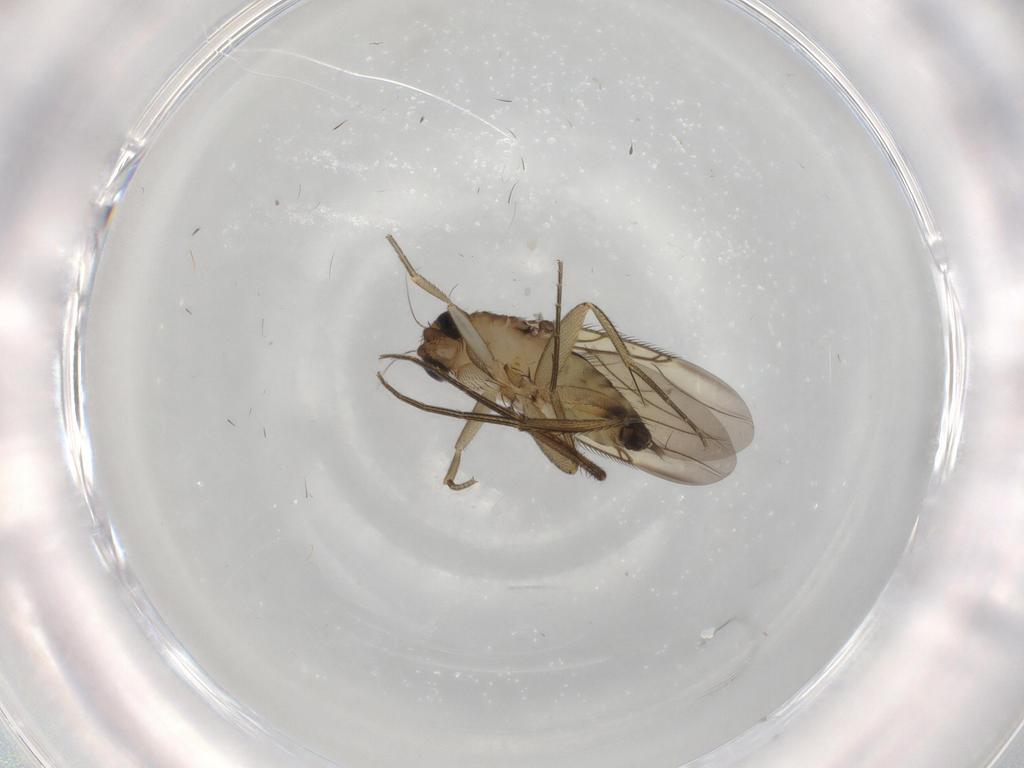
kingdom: Animalia
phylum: Arthropoda
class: Insecta
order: Diptera
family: Phoridae
